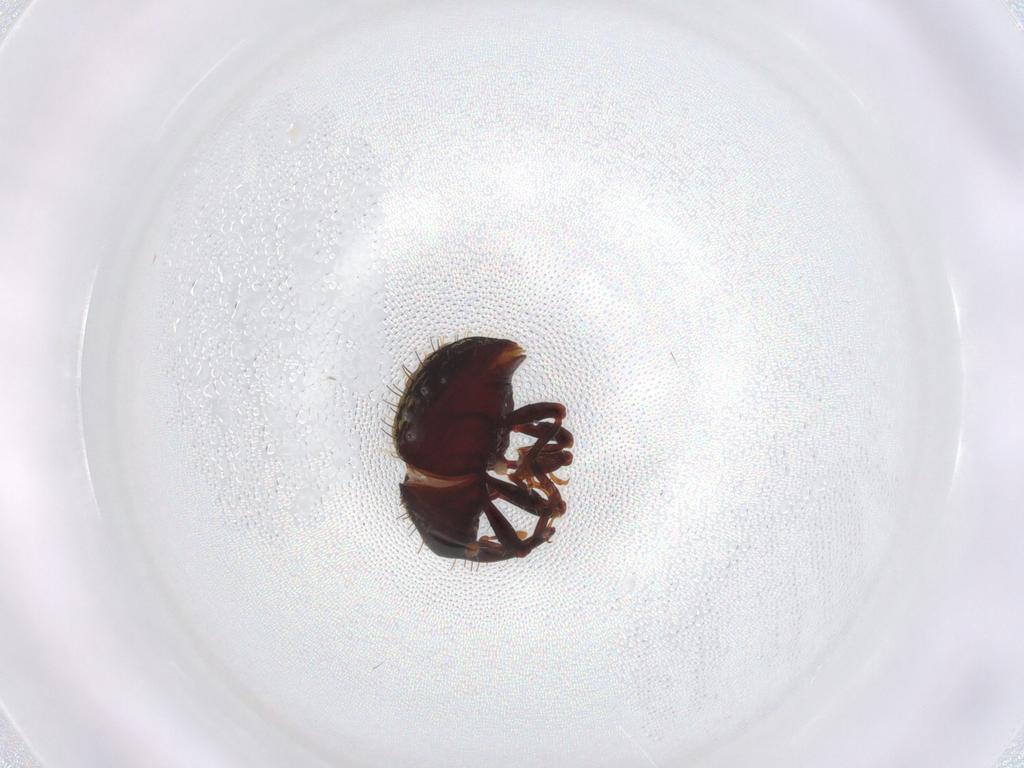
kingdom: Animalia
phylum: Arthropoda
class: Insecta
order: Coleoptera
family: Curculionidae
